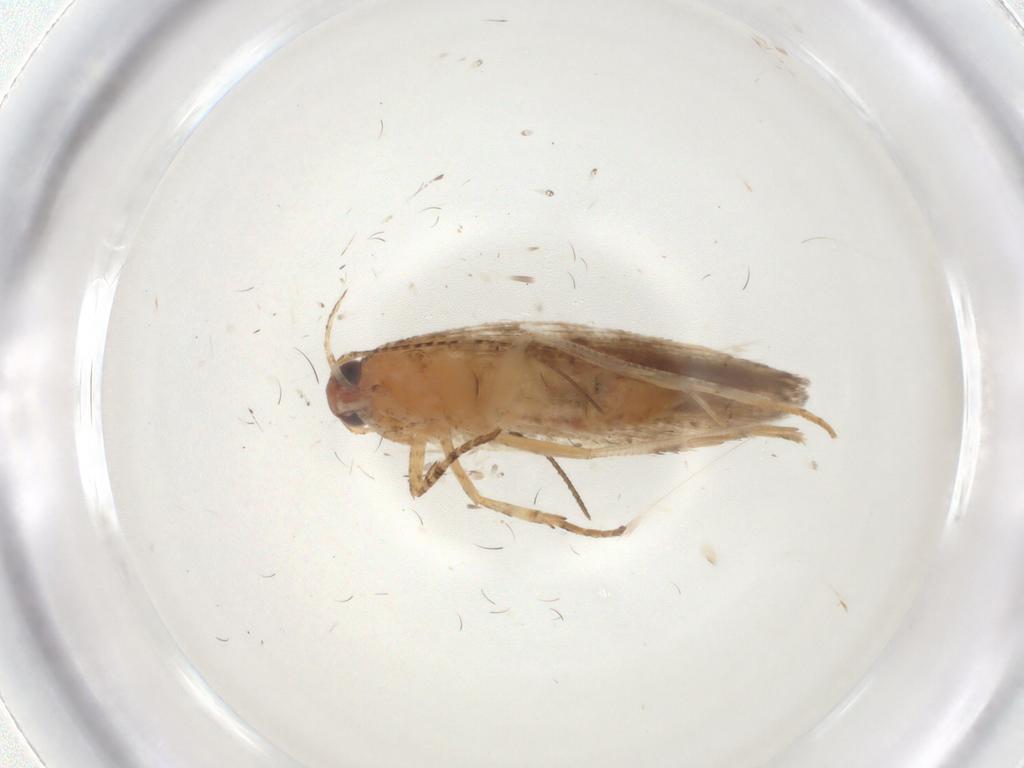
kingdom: Animalia
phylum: Arthropoda
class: Insecta
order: Lepidoptera
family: Gelechiidae
